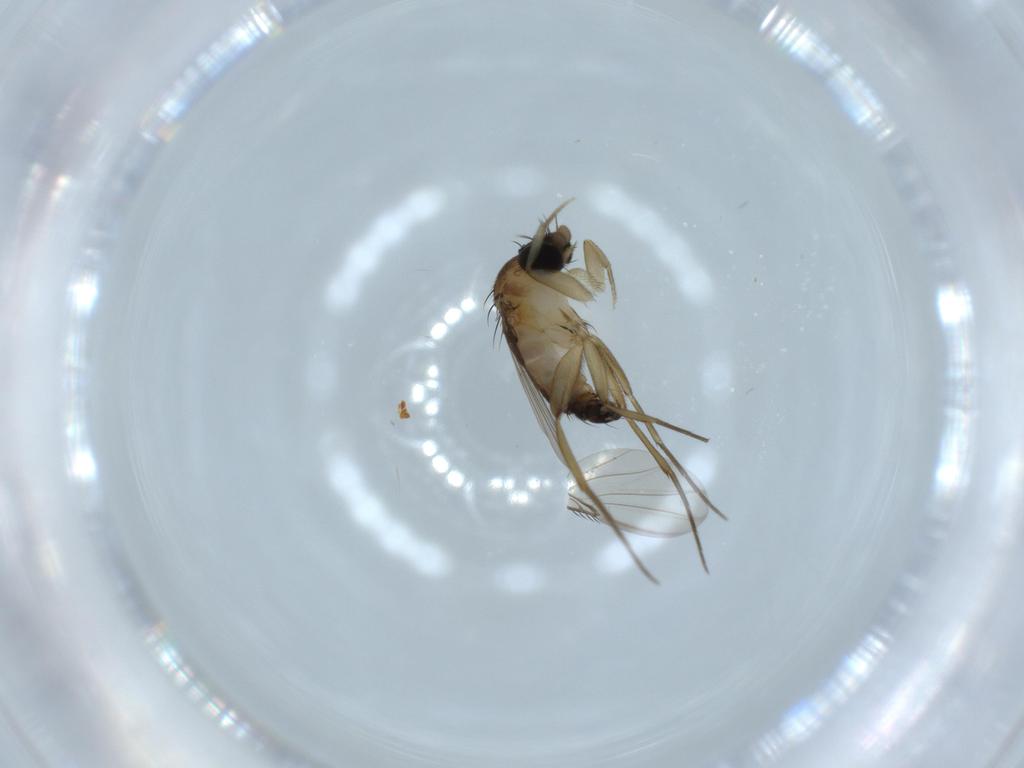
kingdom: Animalia
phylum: Arthropoda
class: Insecta
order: Diptera
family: Phoridae
